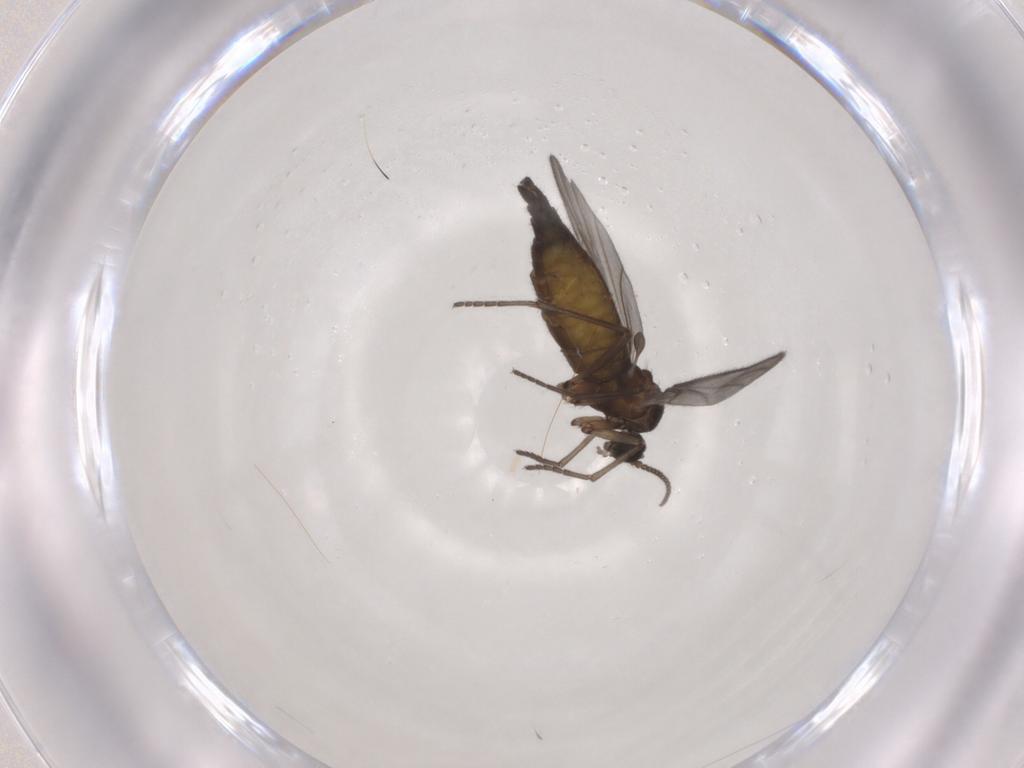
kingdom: Animalia
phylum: Arthropoda
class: Insecta
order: Diptera
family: Sciaridae
